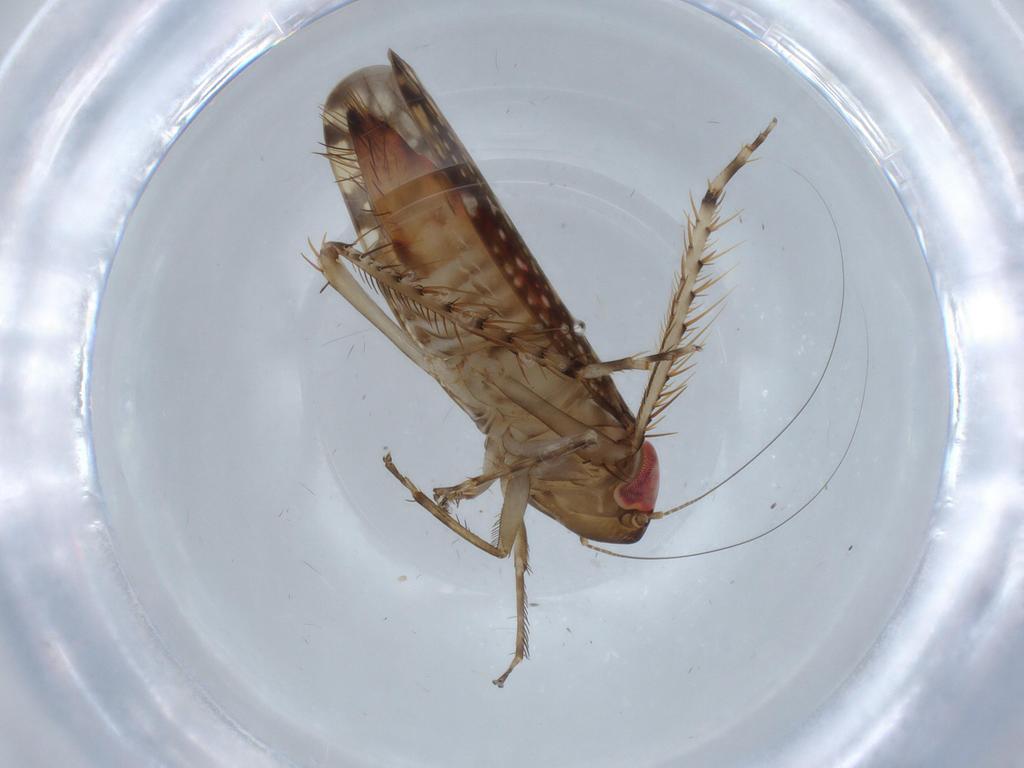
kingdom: Animalia
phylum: Arthropoda
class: Insecta
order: Hemiptera
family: Cicadellidae
